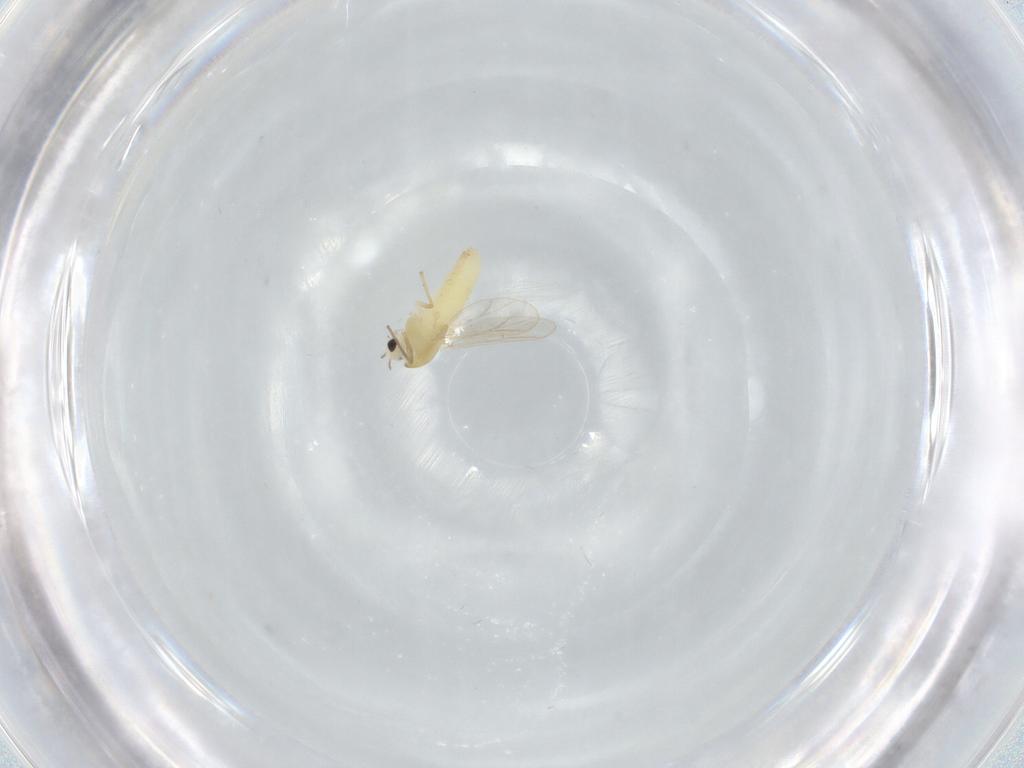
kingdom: Animalia
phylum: Arthropoda
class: Insecta
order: Diptera
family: Chironomidae
